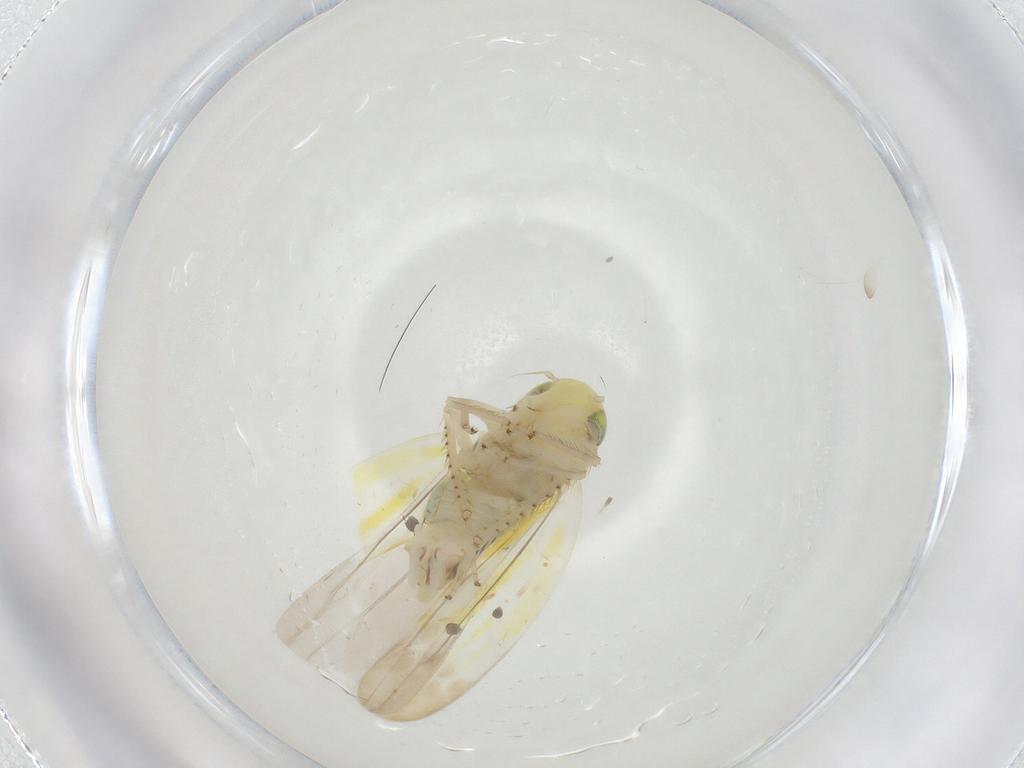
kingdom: Animalia
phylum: Arthropoda
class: Insecta
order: Hemiptera
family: Cicadellidae
